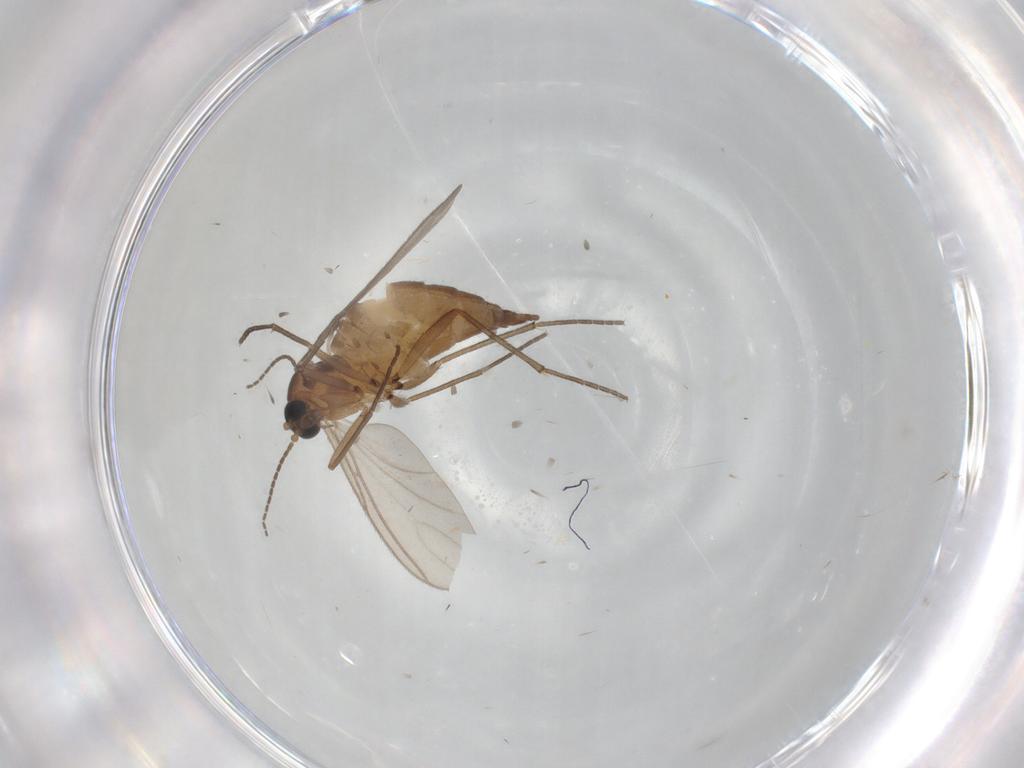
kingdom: Animalia
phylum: Arthropoda
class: Insecta
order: Diptera
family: Sciaridae
